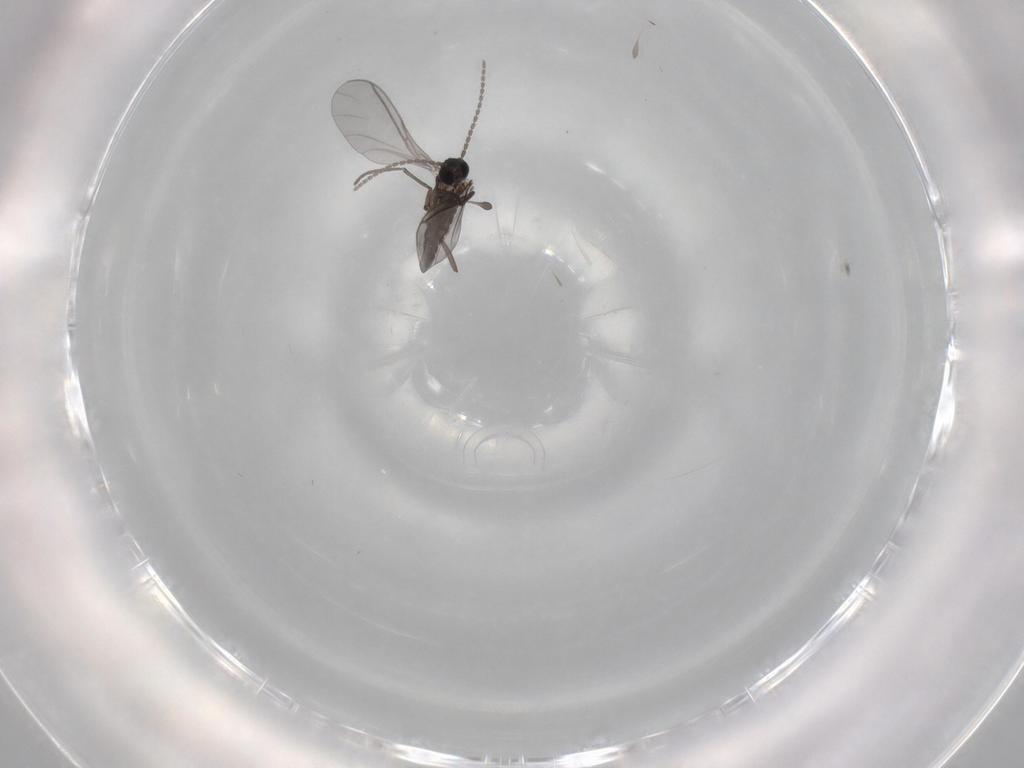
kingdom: Animalia
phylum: Arthropoda
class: Insecta
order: Diptera
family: Sciaridae
